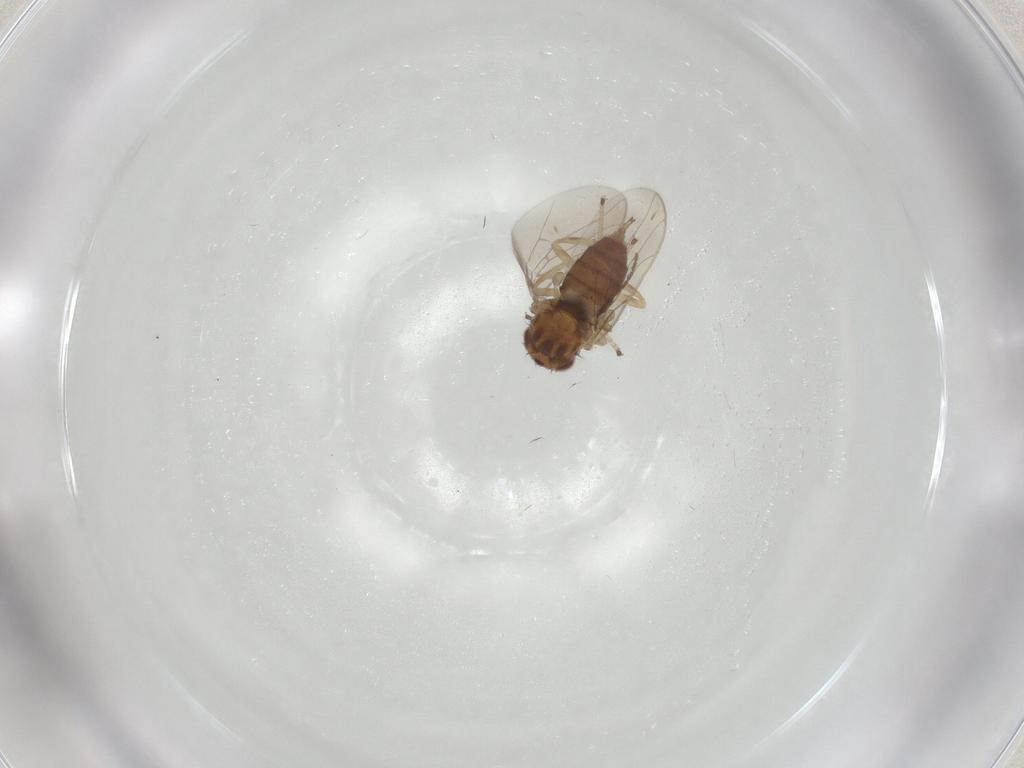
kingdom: Animalia
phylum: Arthropoda
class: Insecta
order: Diptera
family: Chloropidae
